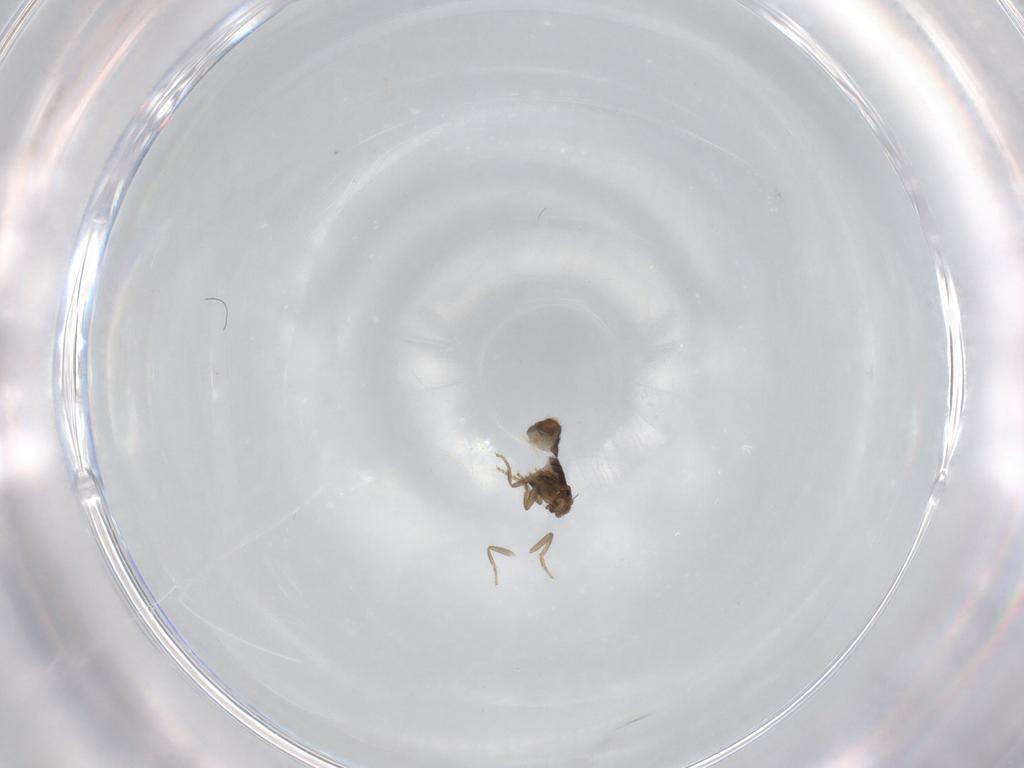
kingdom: Animalia
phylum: Arthropoda
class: Insecta
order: Diptera
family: Phoridae
